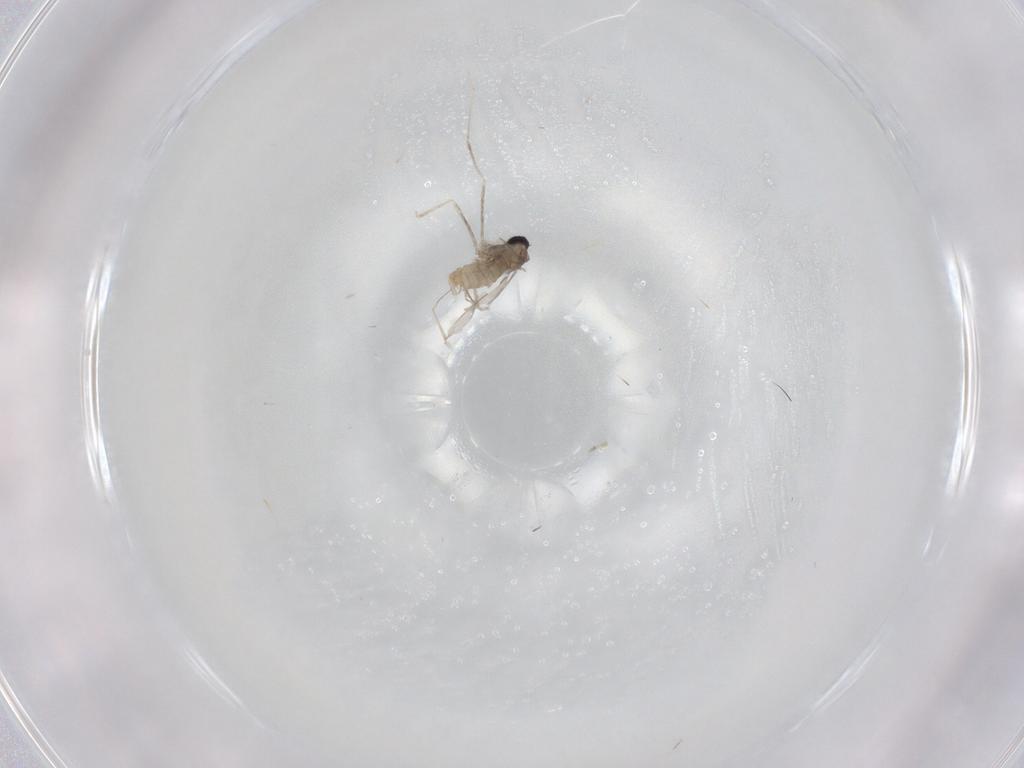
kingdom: Animalia
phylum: Arthropoda
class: Insecta
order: Diptera
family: Cecidomyiidae
